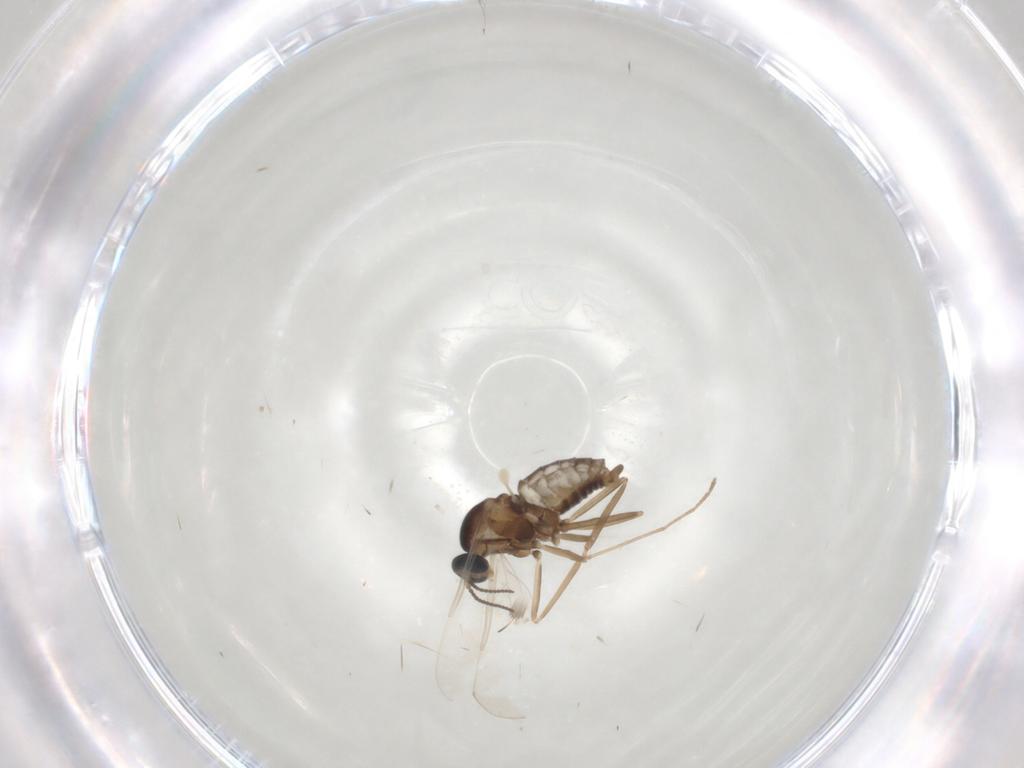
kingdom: Animalia
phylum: Arthropoda
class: Insecta
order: Diptera
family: Cecidomyiidae
